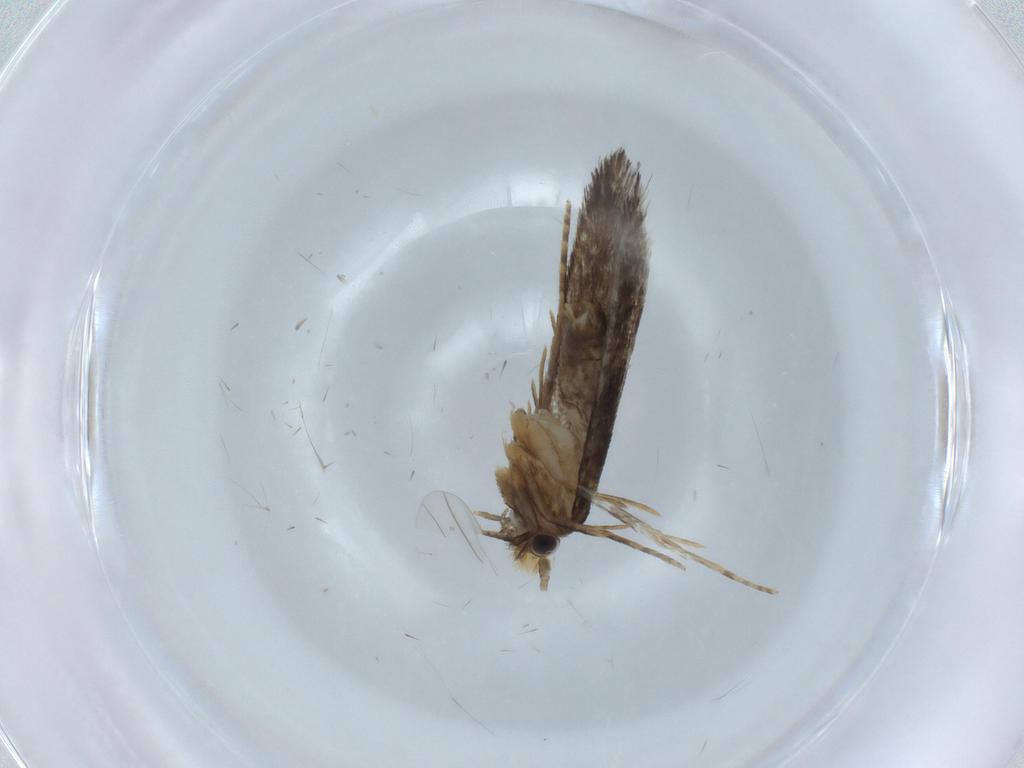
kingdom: Animalia
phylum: Arthropoda
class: Insecta
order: Lepidoptera
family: Tineidae
